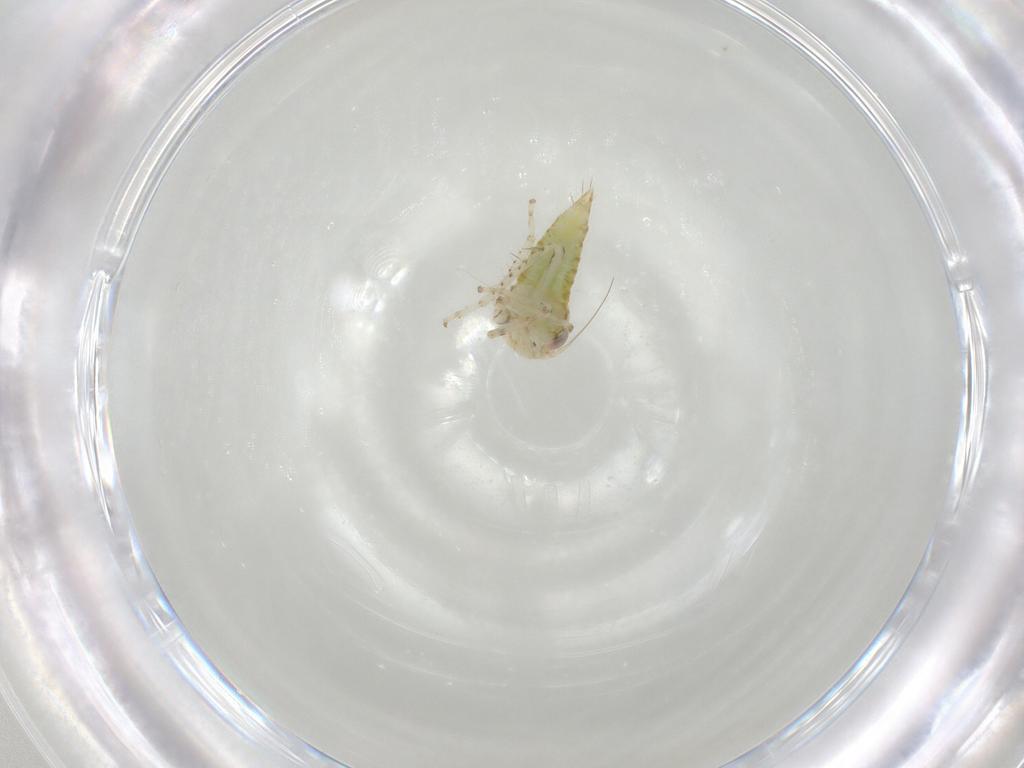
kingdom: Animalia
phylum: Arthropoda
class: Insecta
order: Hemiptera
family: Cicadellidae
